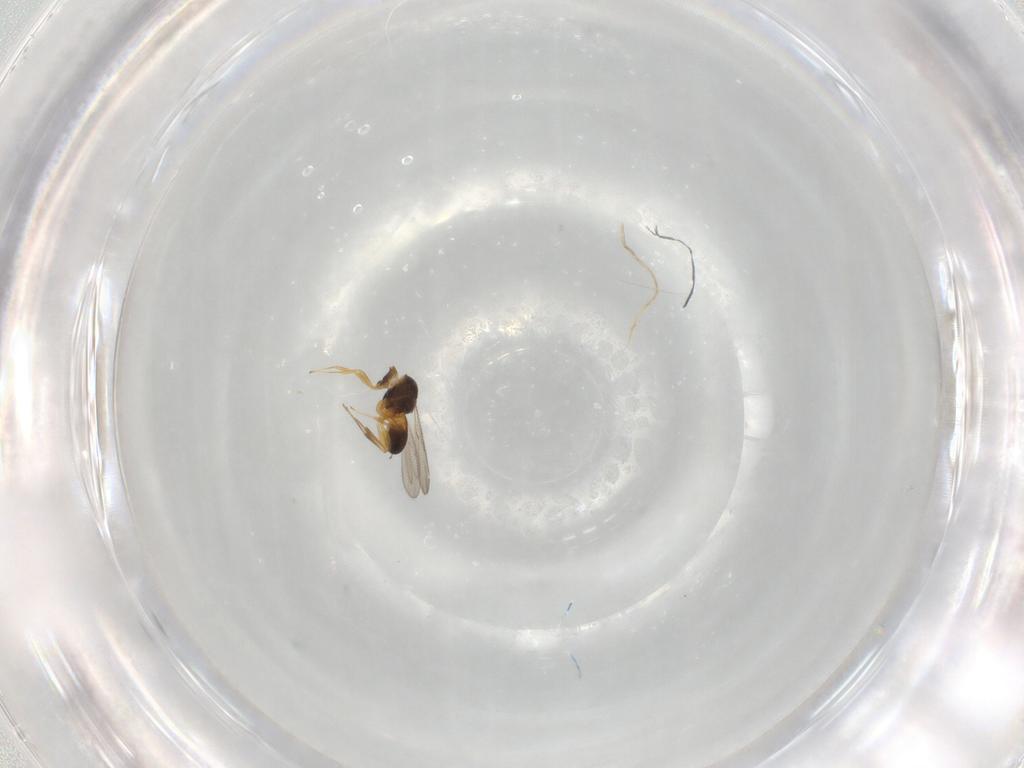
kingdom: Animalia
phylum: Arthropoda
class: Insecta
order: Hymenoptera
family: Scelionidae
